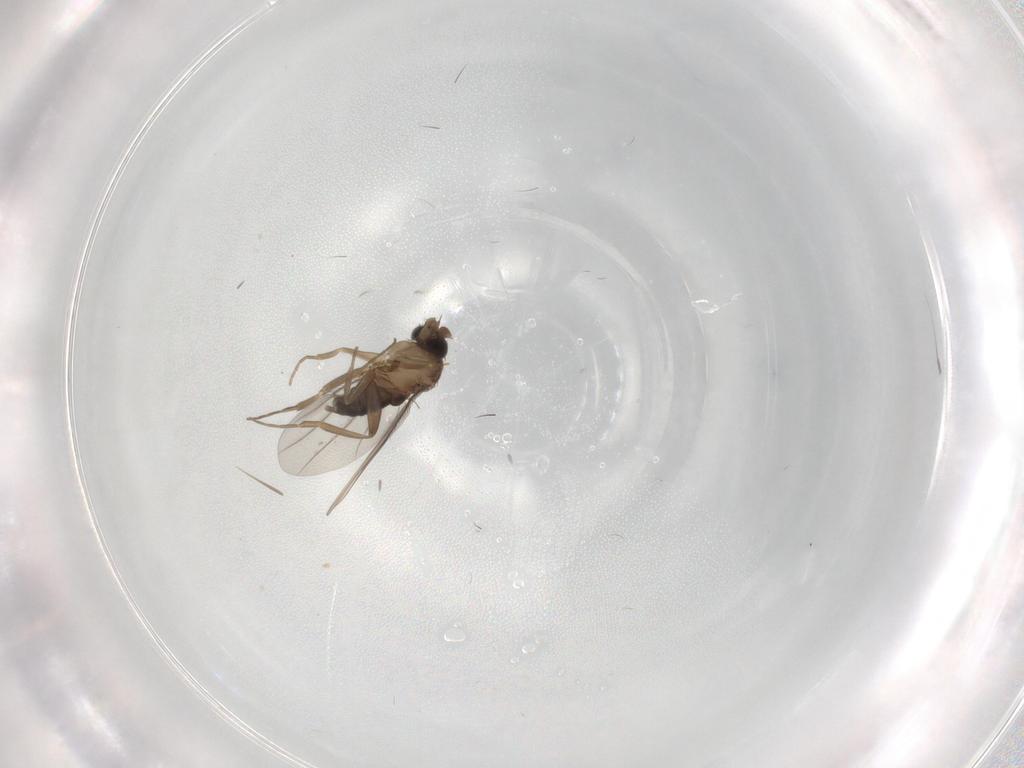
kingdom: Animalia
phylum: Arthropoda
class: Insecta
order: Diptera
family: Phoridae
